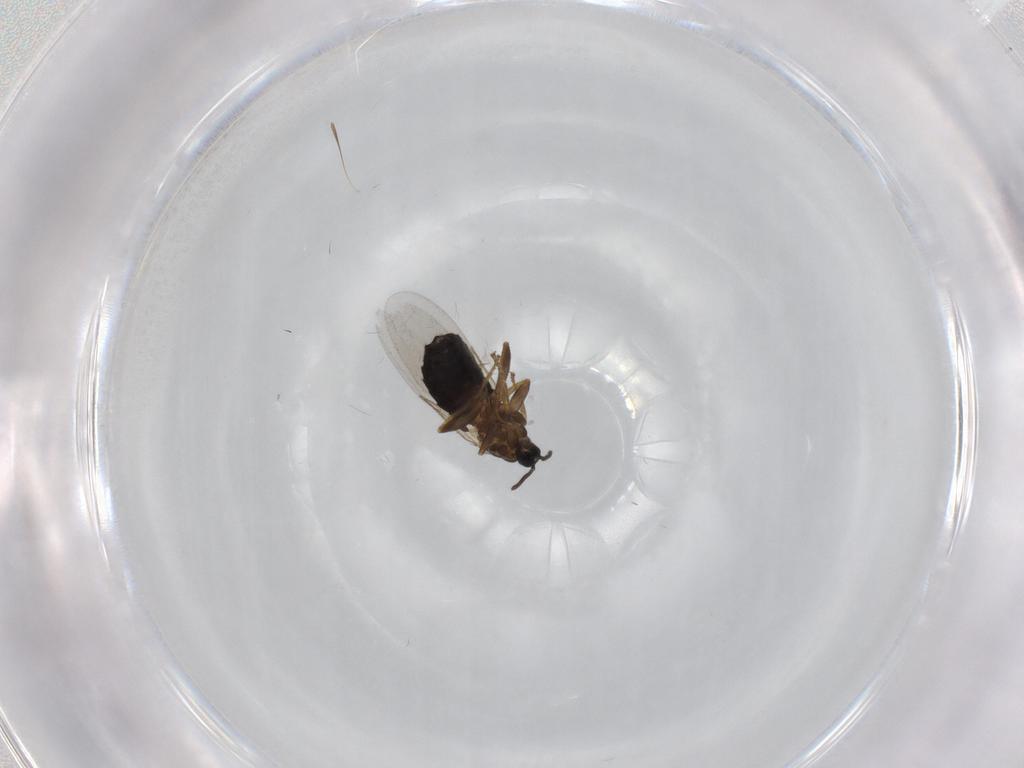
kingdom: Animalia
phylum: Arthropoda
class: Insecta
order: Diptera
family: Scatopsidae
